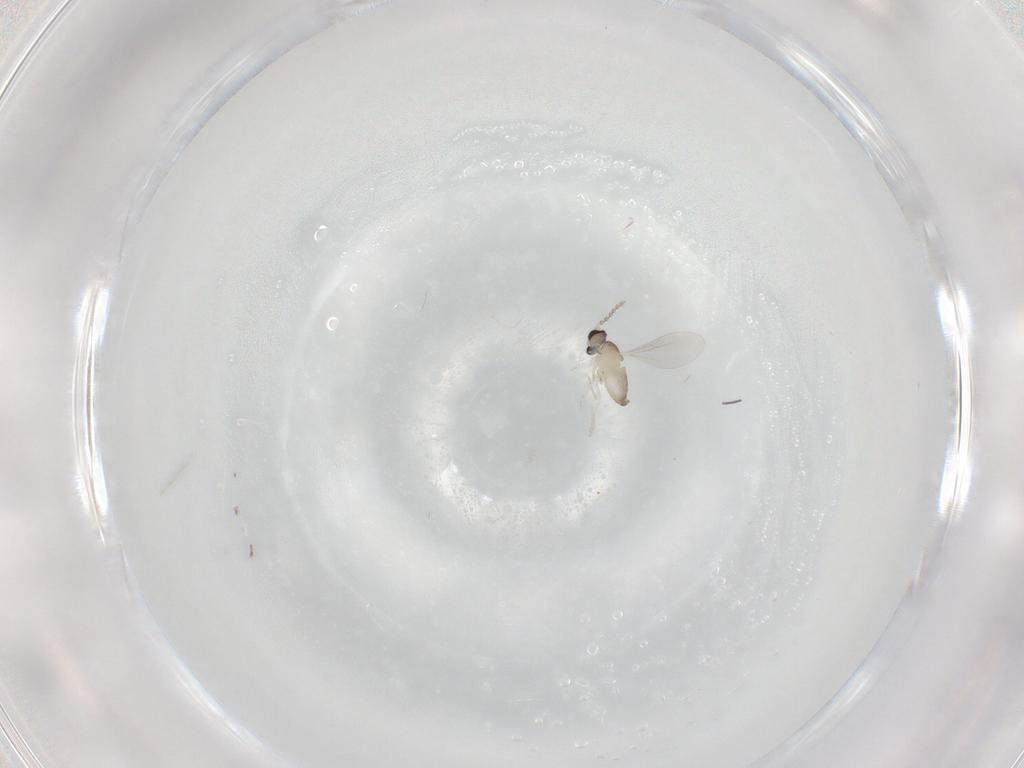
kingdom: Animalia
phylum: Arthropoda
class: Insecta
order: Diptera
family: Cecidomyiidae
